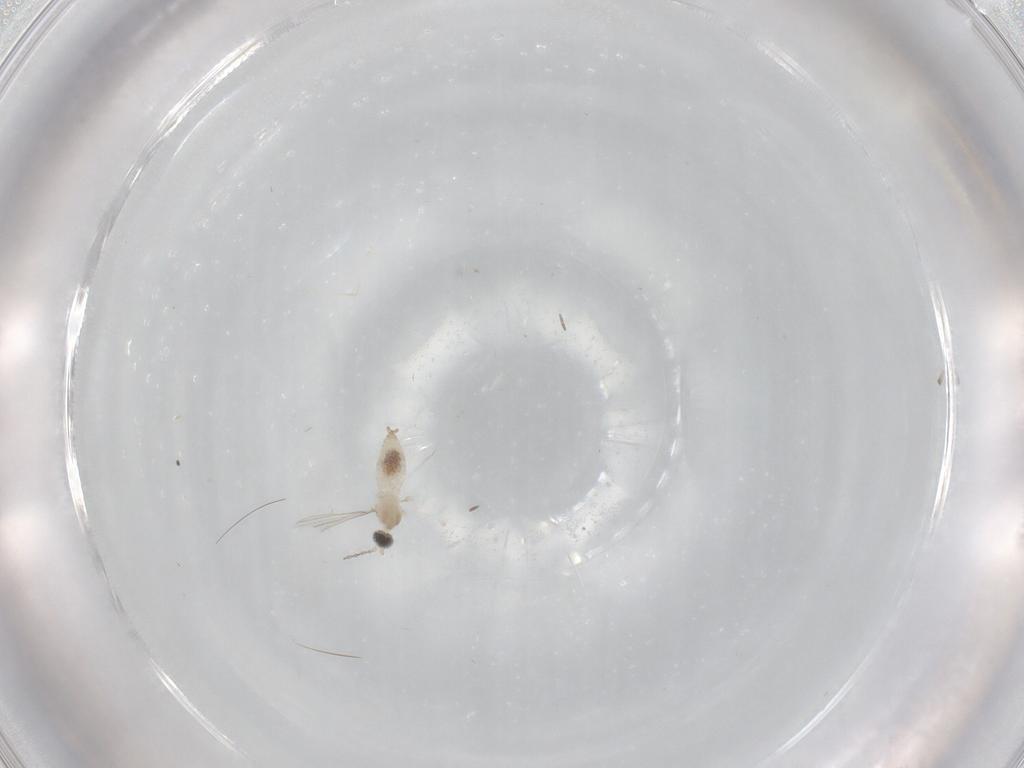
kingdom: Animalia
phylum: Arthropoda
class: Insecta
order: Diptera
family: Cecidomyiidae
